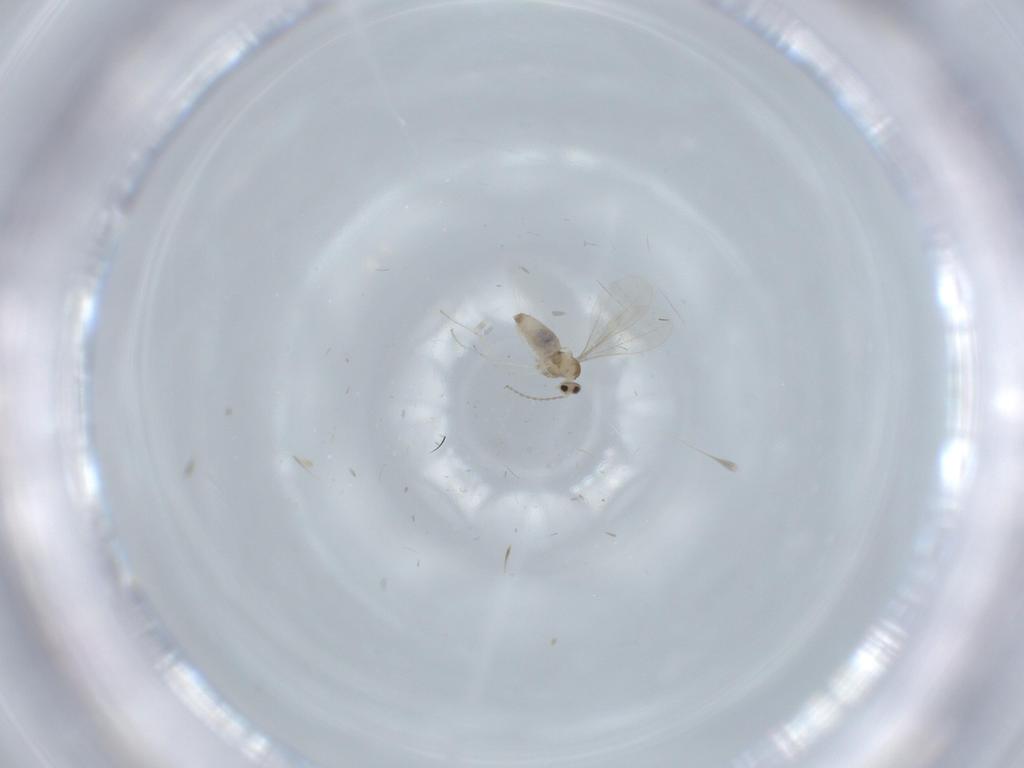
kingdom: Animalia
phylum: Arthropoda
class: Insecta
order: Diptera
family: Cecidomyiidae
